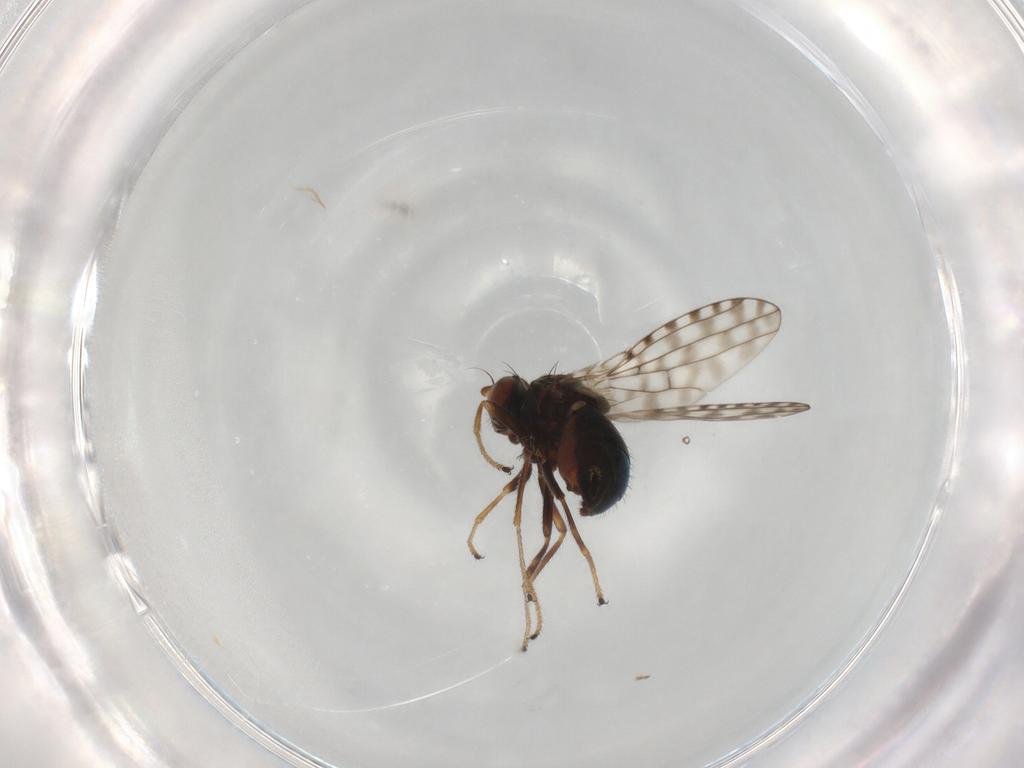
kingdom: Animalia
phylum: Arthropoda
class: Insecta
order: Diptera
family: Ephydridae
